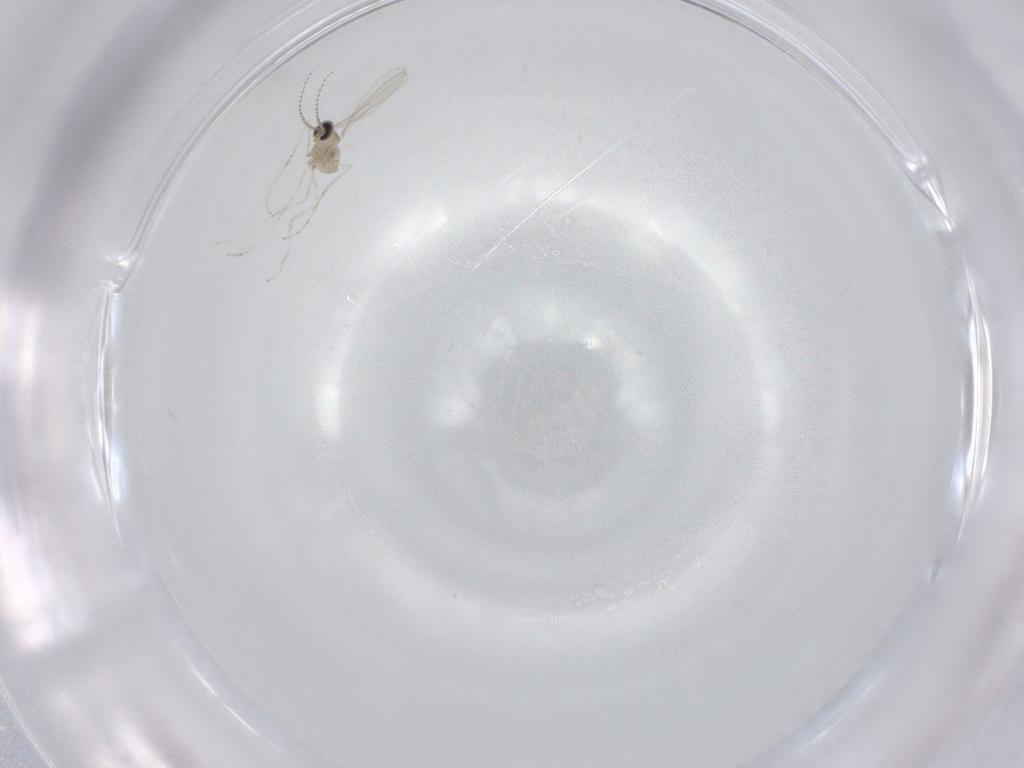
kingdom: Animalia
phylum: Arthropoda
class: Insecta
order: Diptera
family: Cecidomyiidae
